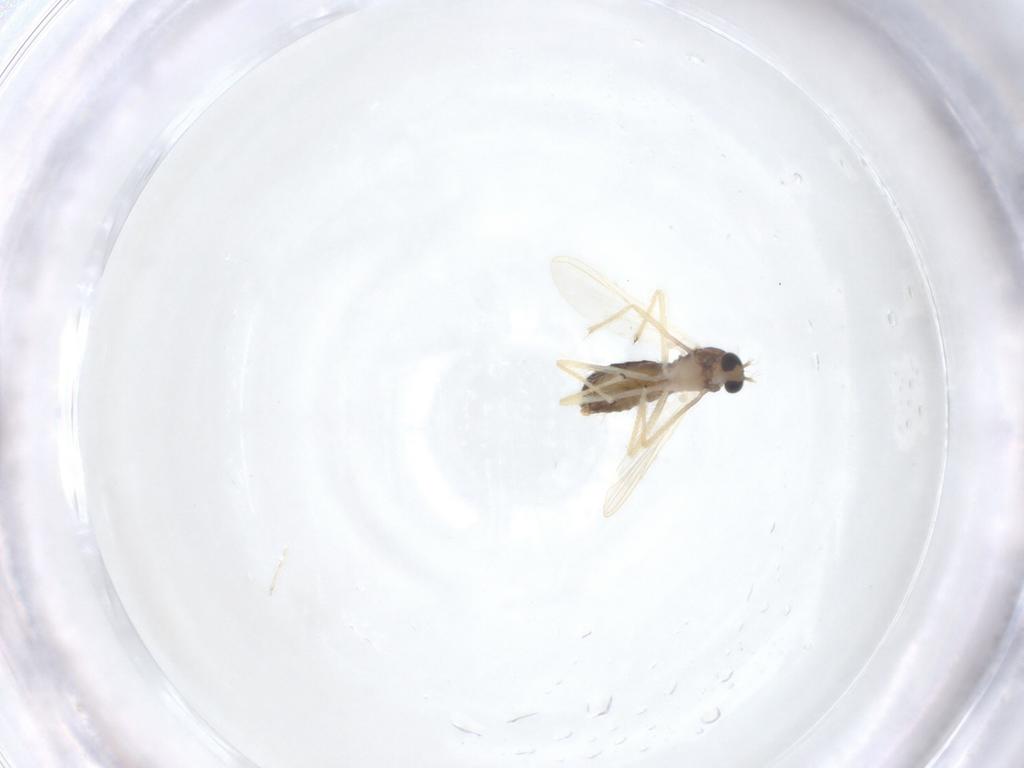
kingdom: Animalia
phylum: Arthropoda
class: Insecta
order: Diptera
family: Chironomidae
